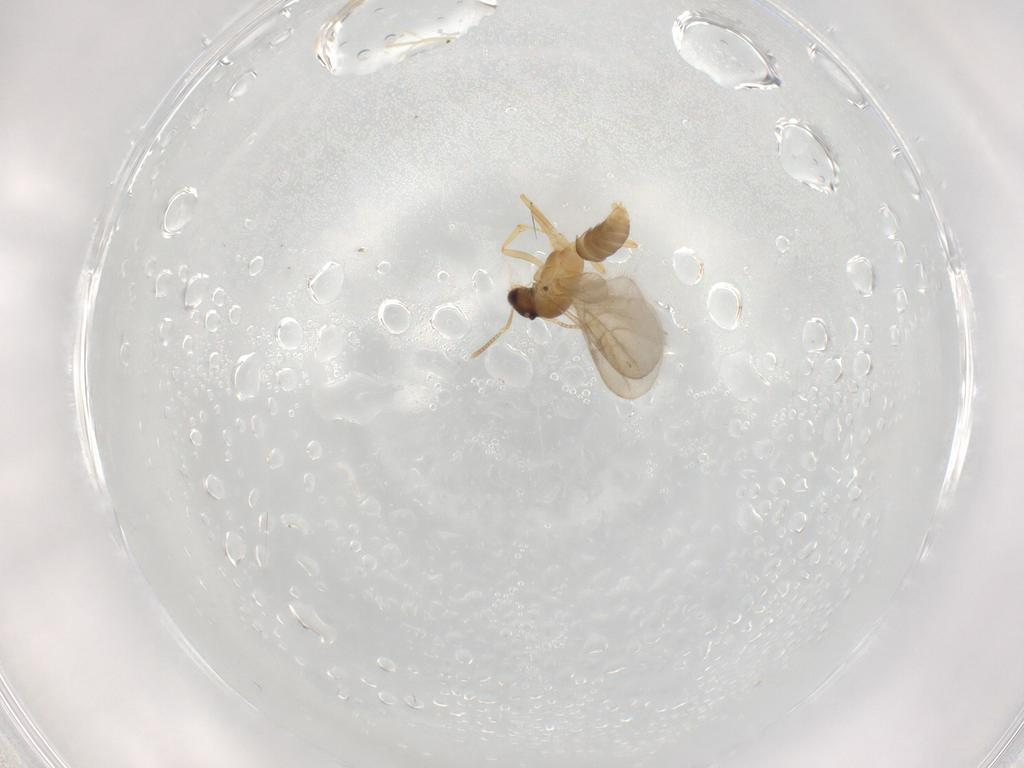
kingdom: Animalia
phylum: Arthropoda
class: Insecta
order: Hymenoptera
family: Formicidae
